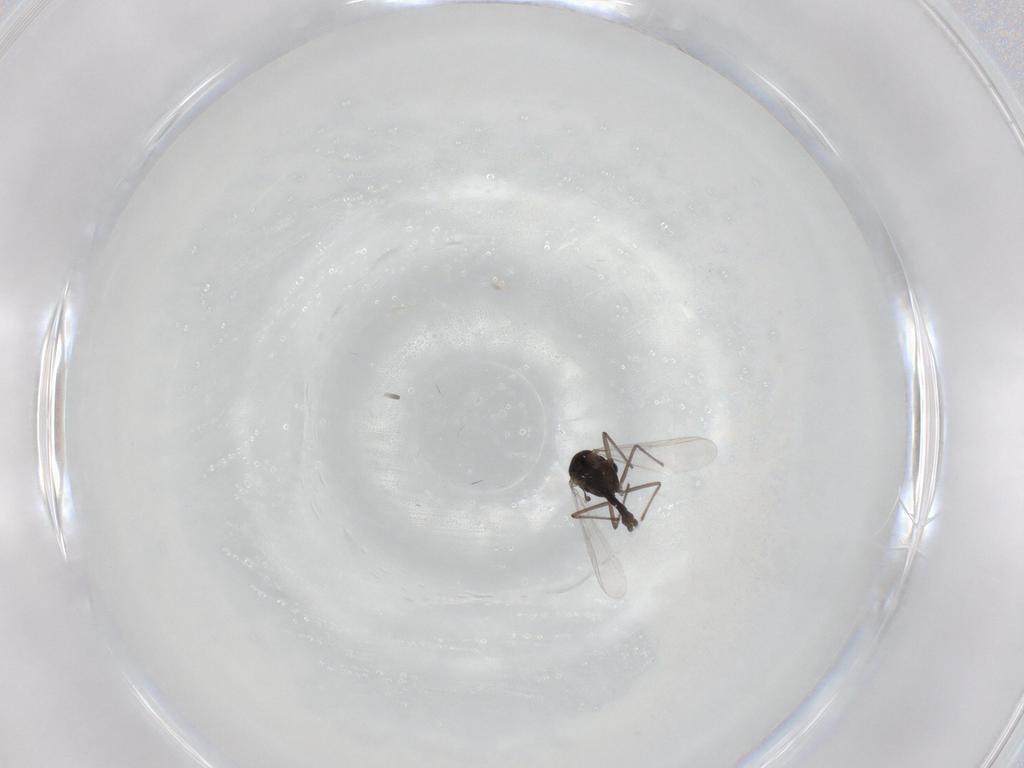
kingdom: Animalia
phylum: Arthropoda
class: Insecta
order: Diptera
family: Chironomidae
